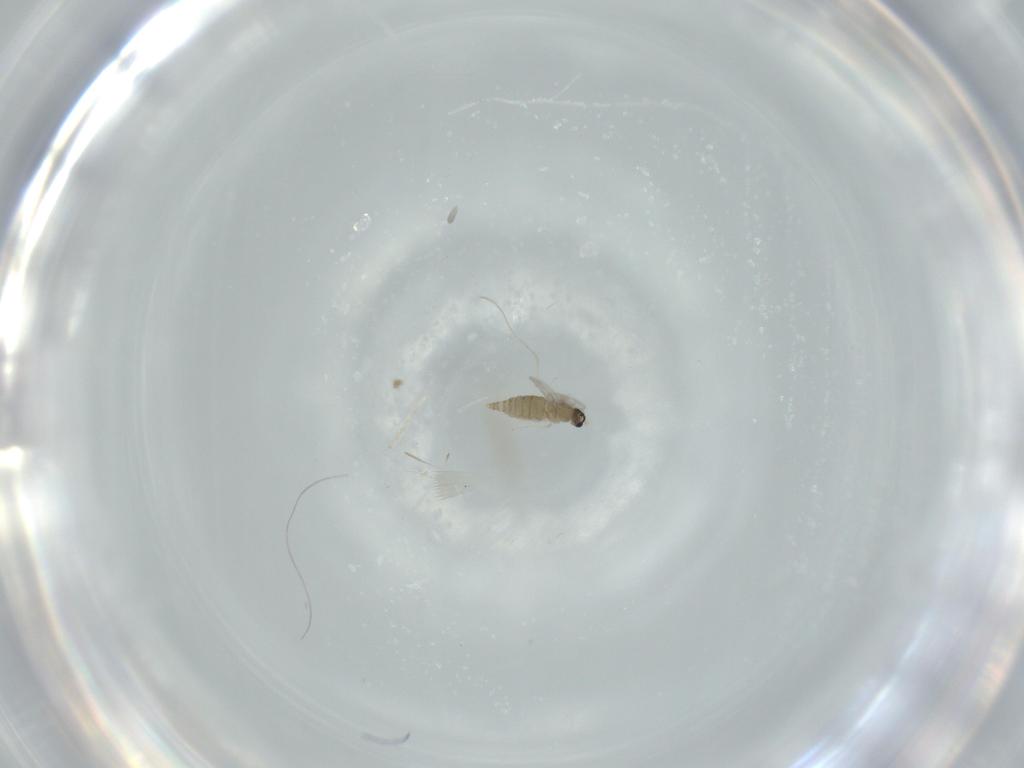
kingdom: Animalia
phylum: Arthropoda
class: Insecta
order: Diptera
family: Cecidomyiidae
